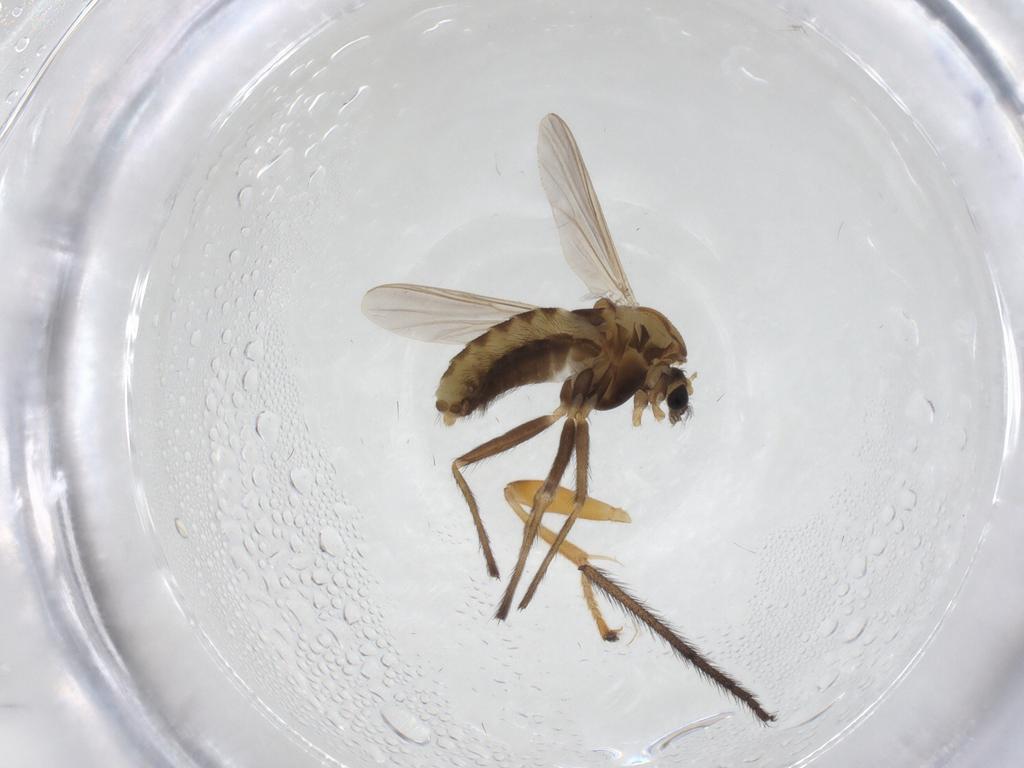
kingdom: Animalia
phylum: Arthropoda
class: Insecta
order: Diptera
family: Chironomidae
